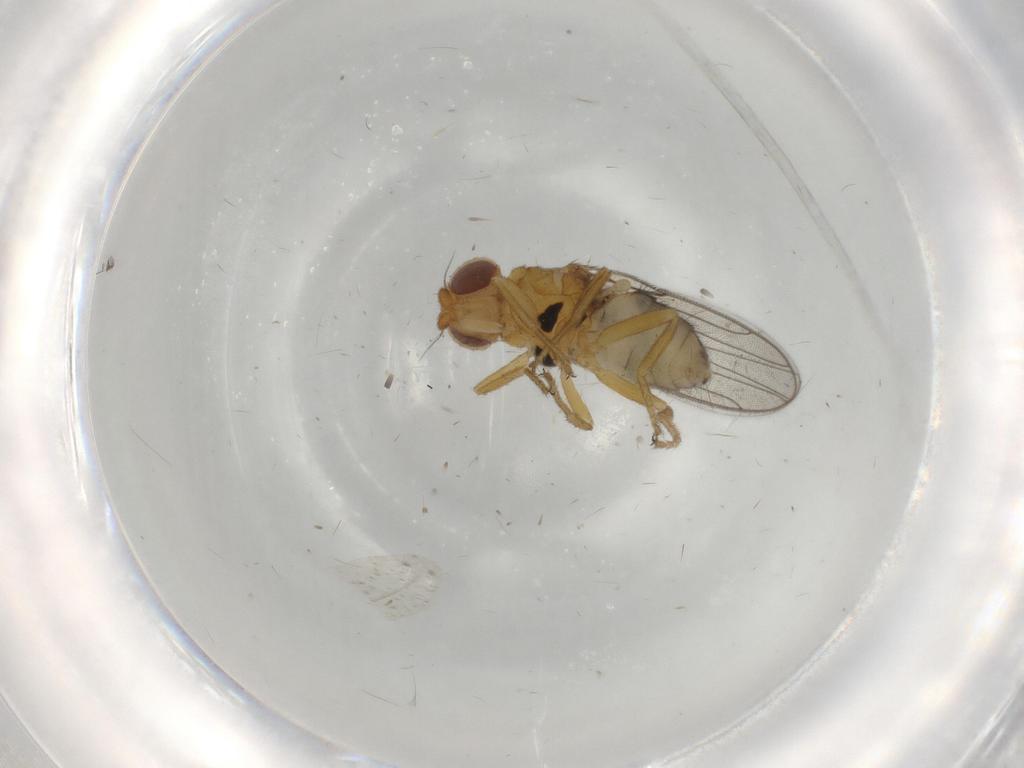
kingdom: Animalia
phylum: Arthropoda
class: Insecta
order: Diptera
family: Chloropidae
